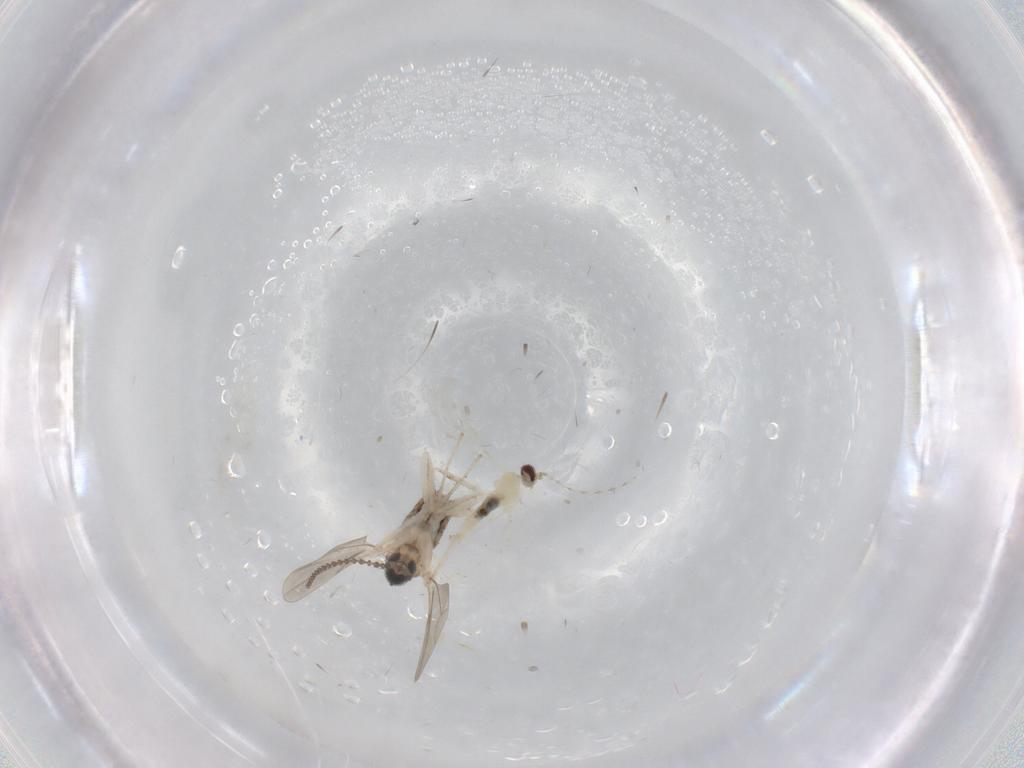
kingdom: Animalia
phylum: Arthropoda
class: Insecta
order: Diptera
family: Cecidomyiidae
